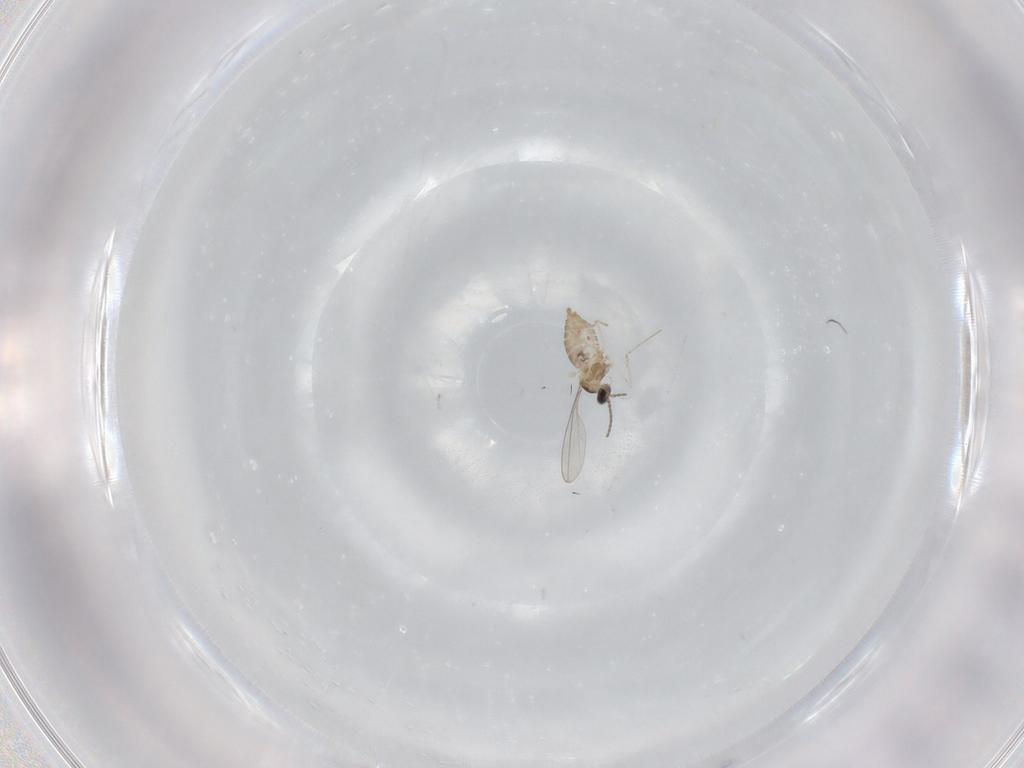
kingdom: Animalia
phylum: Arthropoda
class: Insecta
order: Diptera
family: Cecidomyiidae
